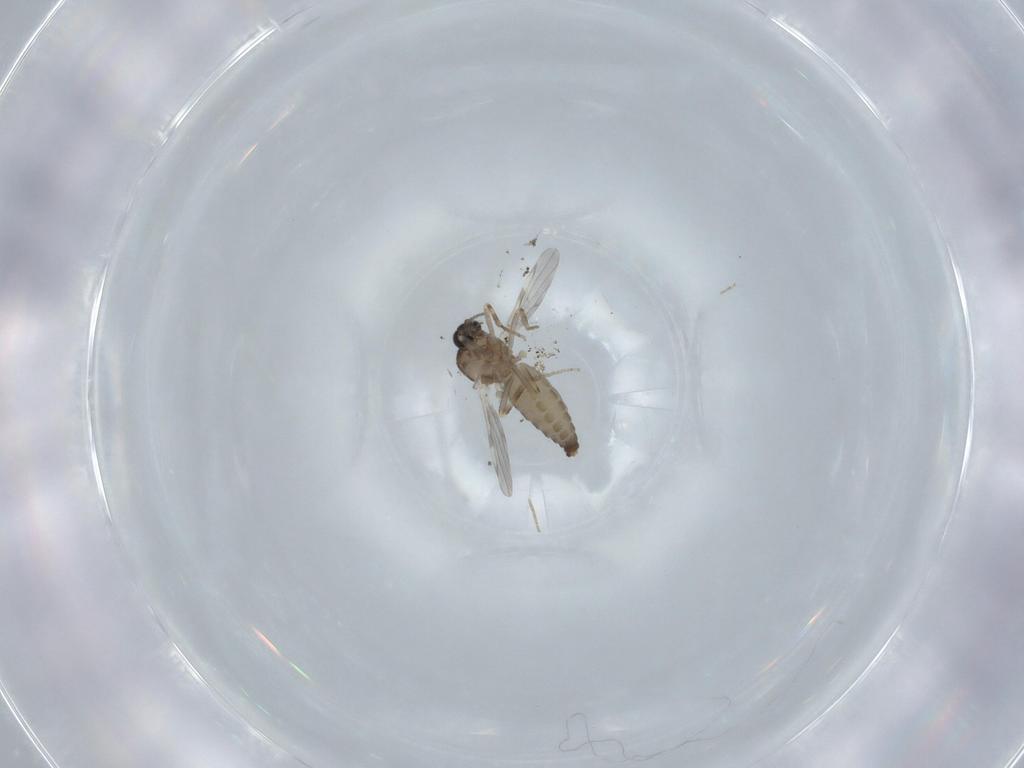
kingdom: Animalia
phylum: Arthropoda
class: Insecta
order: Diptera
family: Ceratopogonidae
